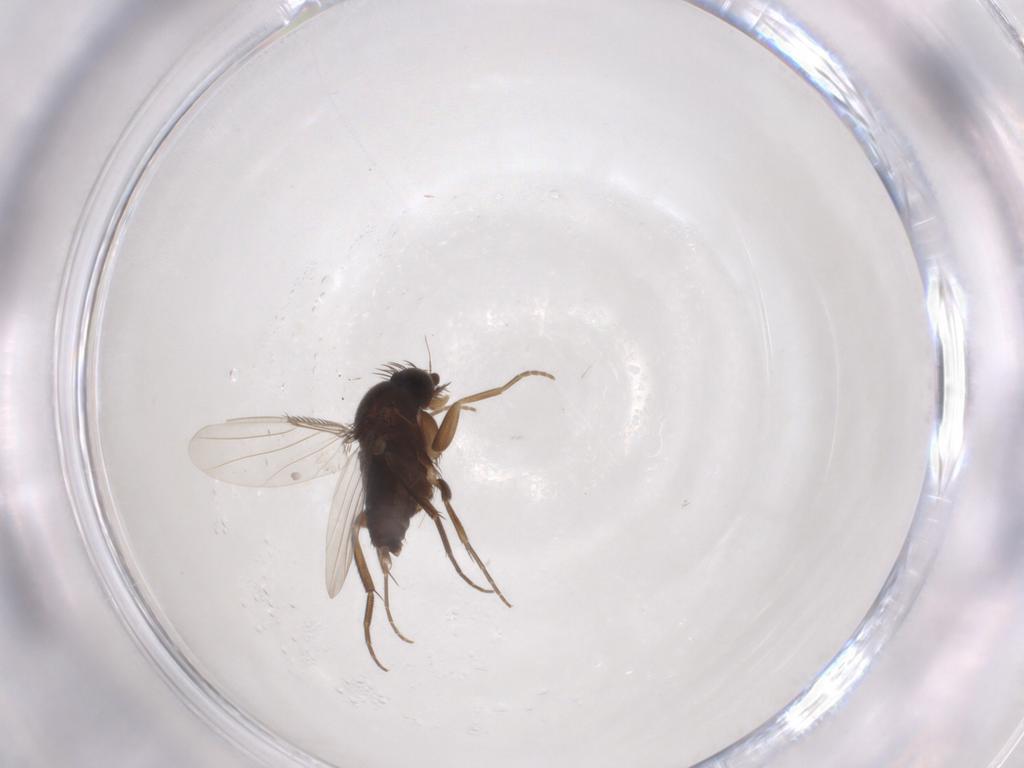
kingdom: Animalia
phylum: Arthropoda
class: Insecta
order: Diptera
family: Phoridae
